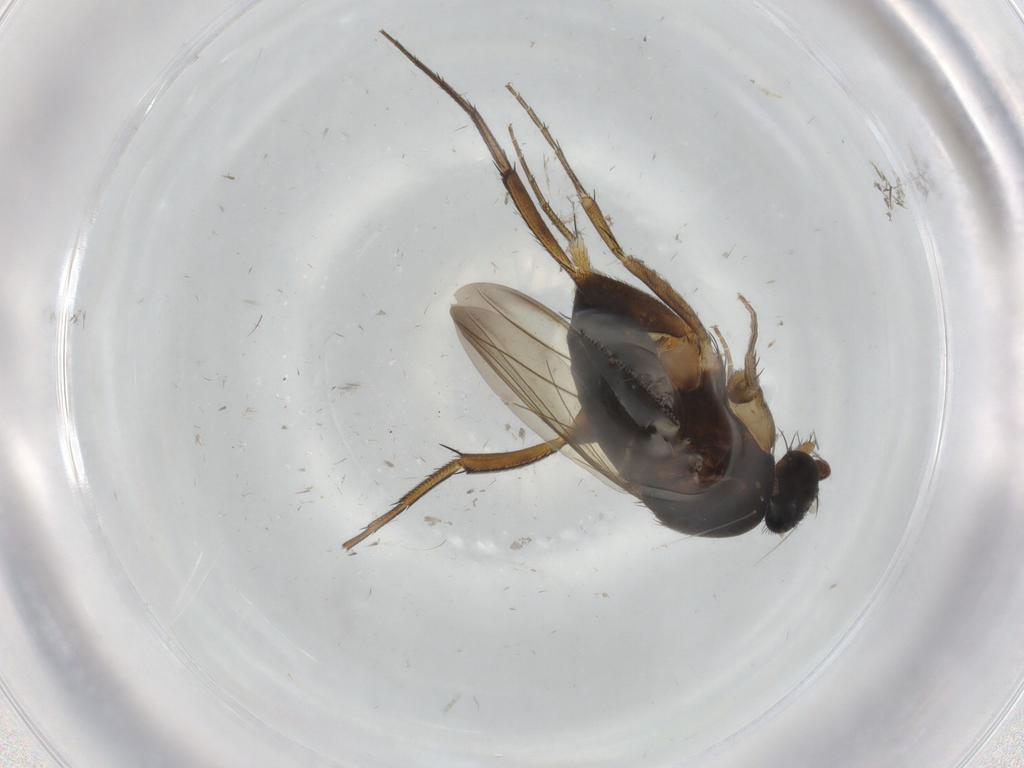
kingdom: Animalia
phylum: Arthropoda
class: Insecta
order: Diptera
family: Phoridae
